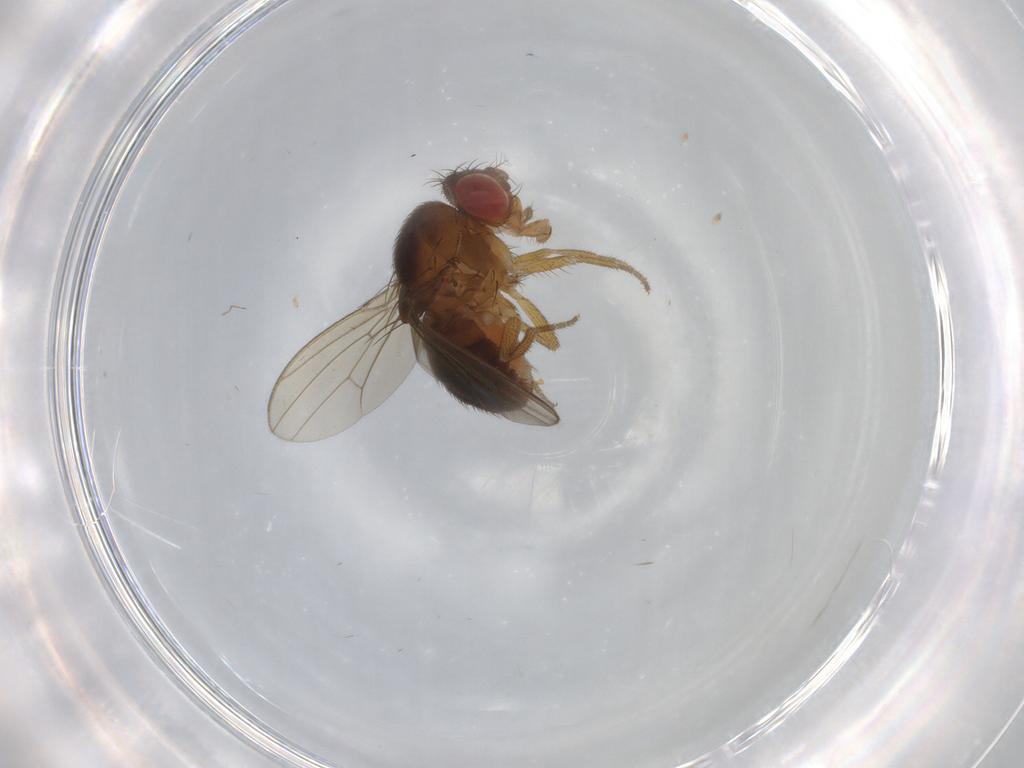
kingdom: Animalia
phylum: Arthropoda
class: Insecta
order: Diptera
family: Drosophilidae
